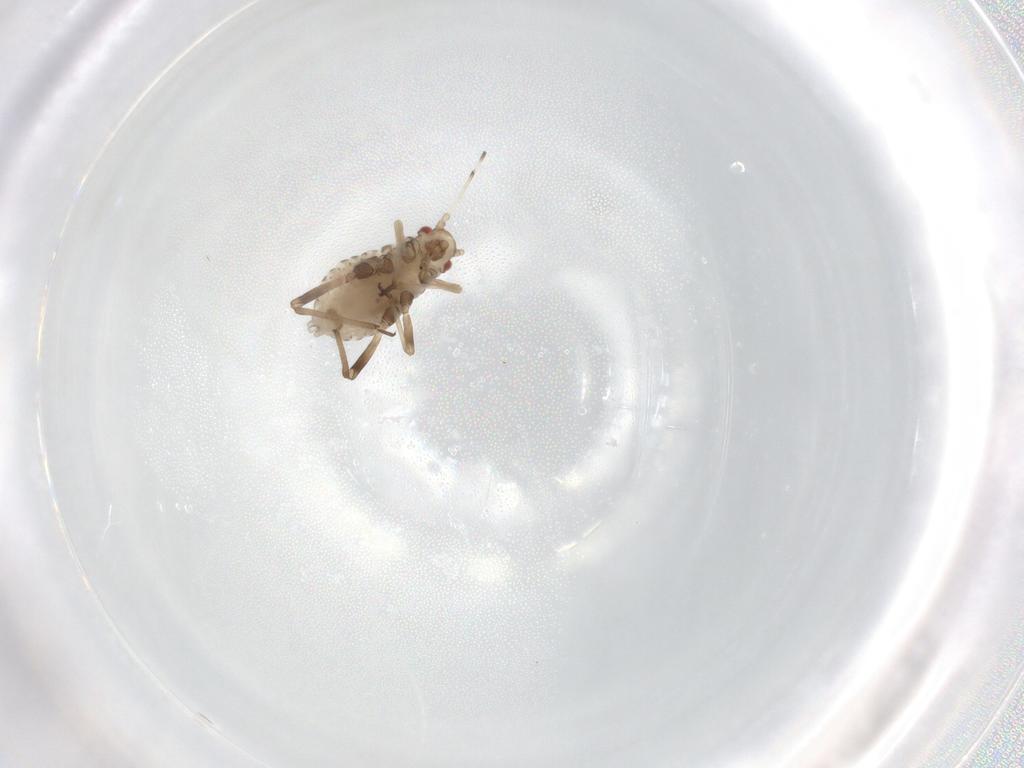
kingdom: Animalia
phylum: Arthropoda
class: Insecta
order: Hemiptera
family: Aphididae
